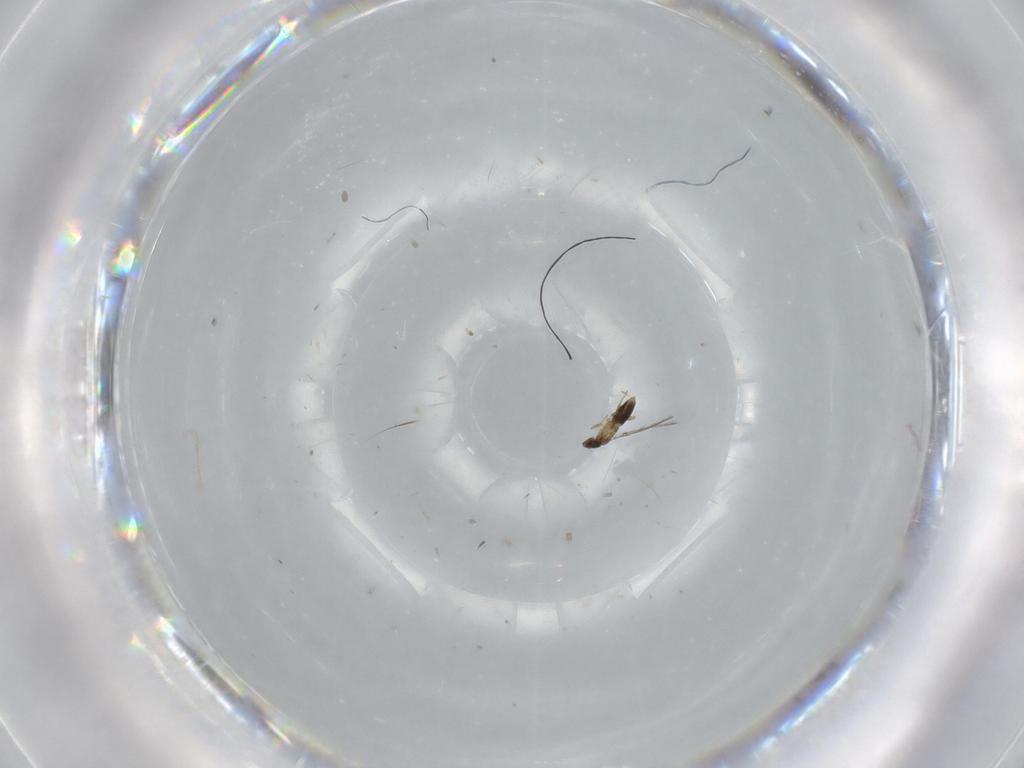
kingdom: Animalia
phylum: Arthropoda
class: Insecta
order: Hymenoptera
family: Mymaridae
